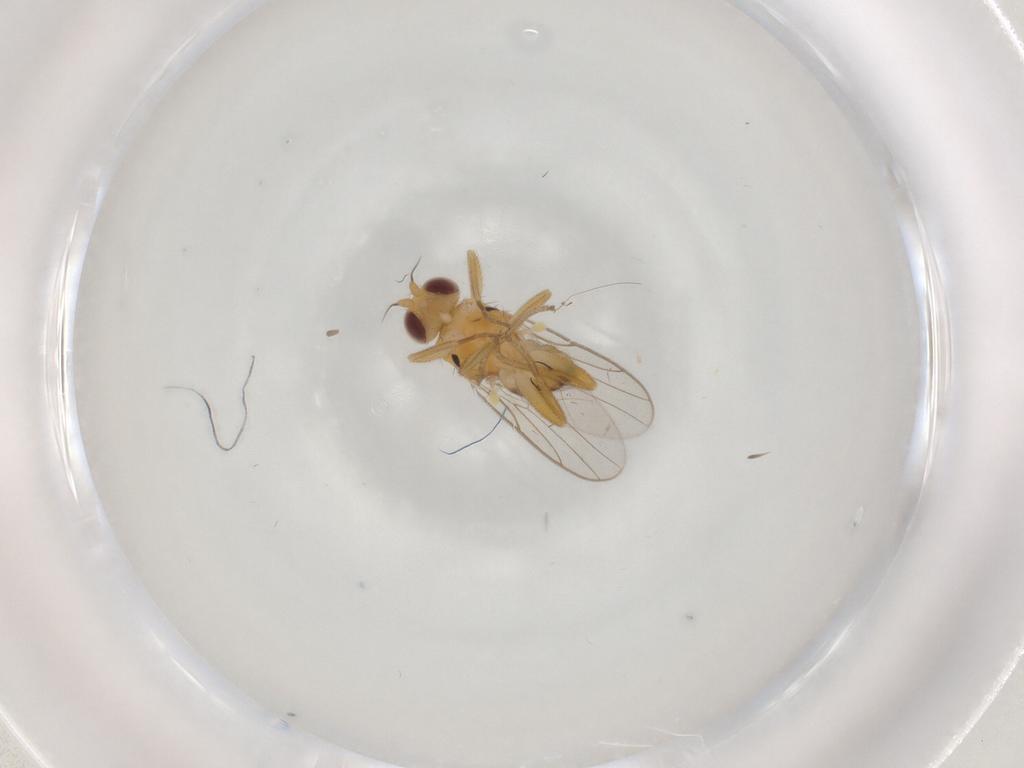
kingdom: Animalia
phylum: Arthropoda
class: Insecta
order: Diptera
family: Chloropidae
